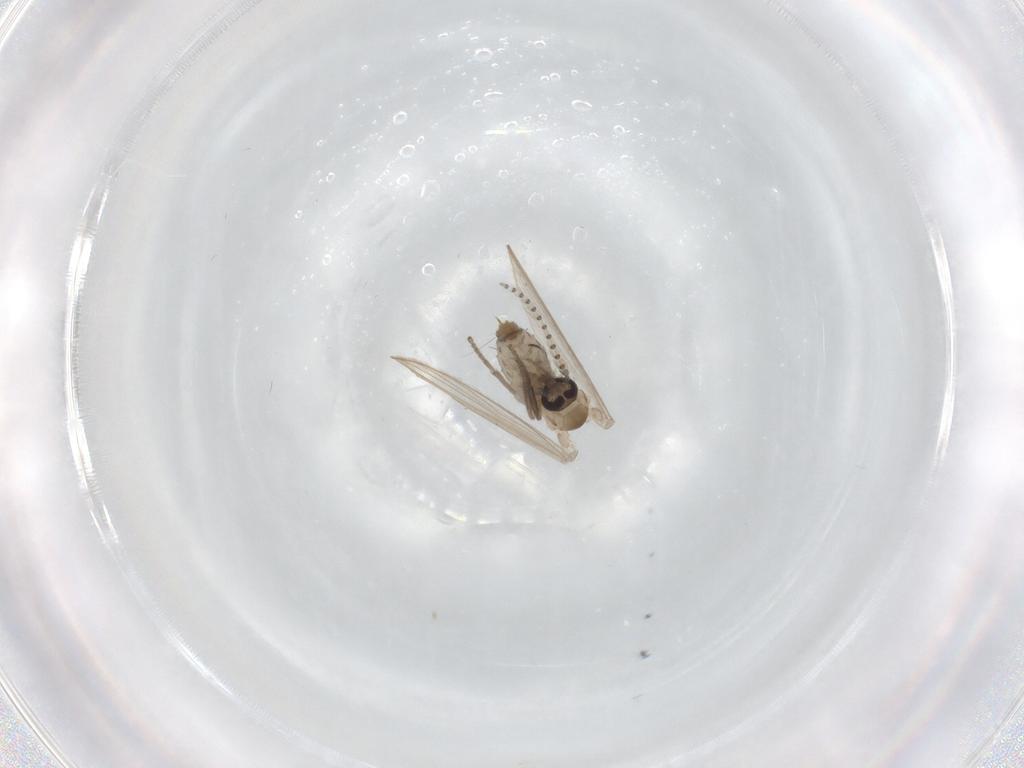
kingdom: Animalia
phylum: Arthropoda
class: Insecta
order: Diptera
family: Psychodidae
